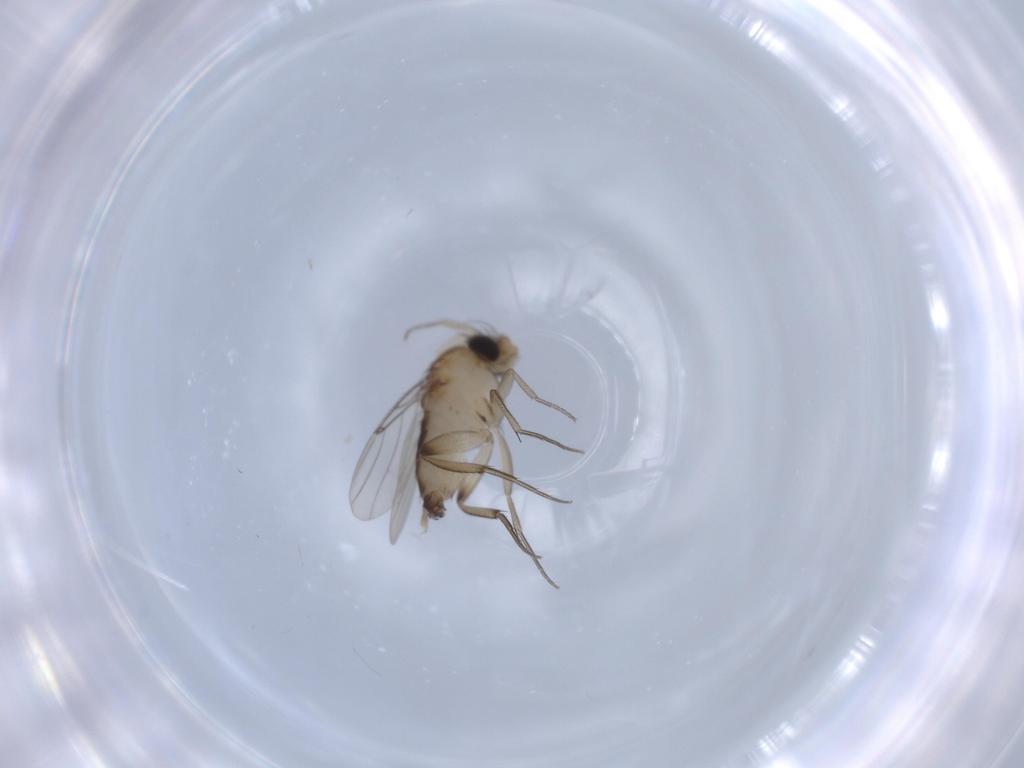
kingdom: Animalia
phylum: Arthropoda
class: Insecta
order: Diptera
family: Phoridae
